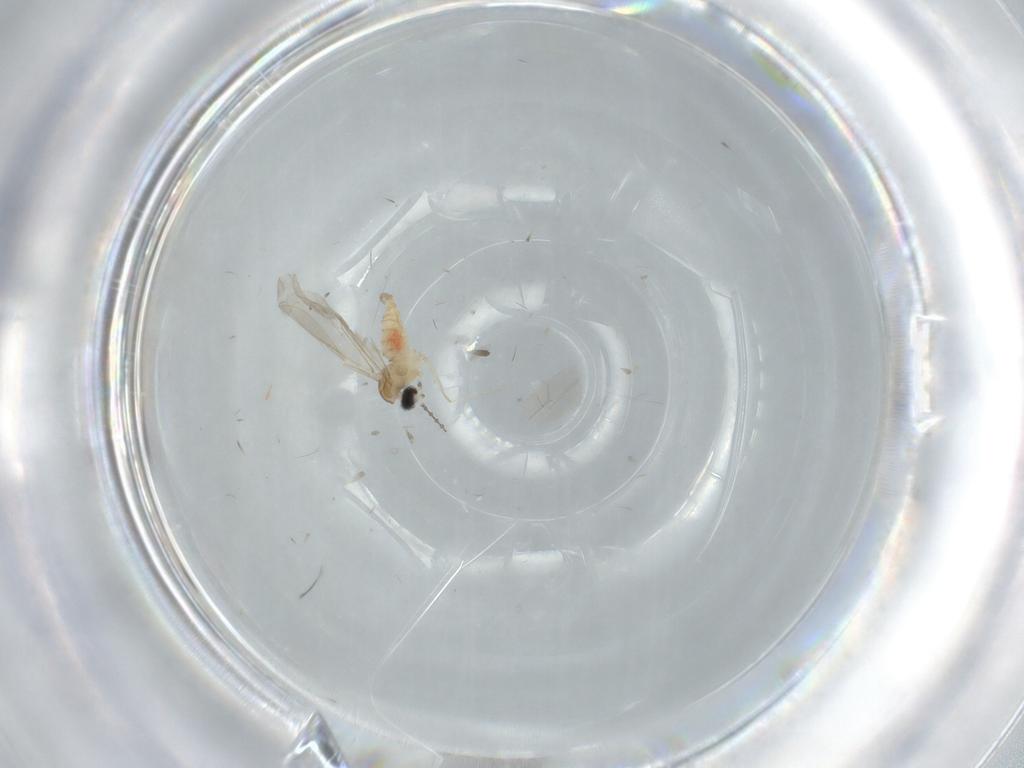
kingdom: Animalia
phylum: Arthropoda
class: Insecta
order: Diptera
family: Cecidomyiidae
